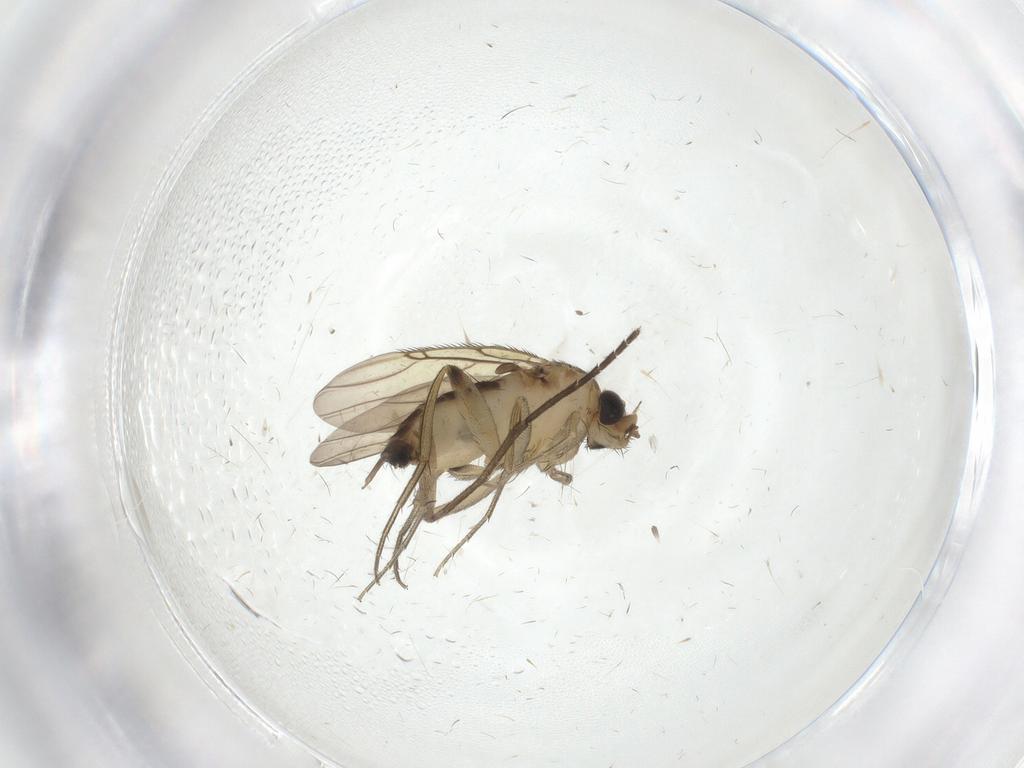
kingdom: Animalia
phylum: Arthropoda
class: Insecta
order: Diptera
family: Phoridae
